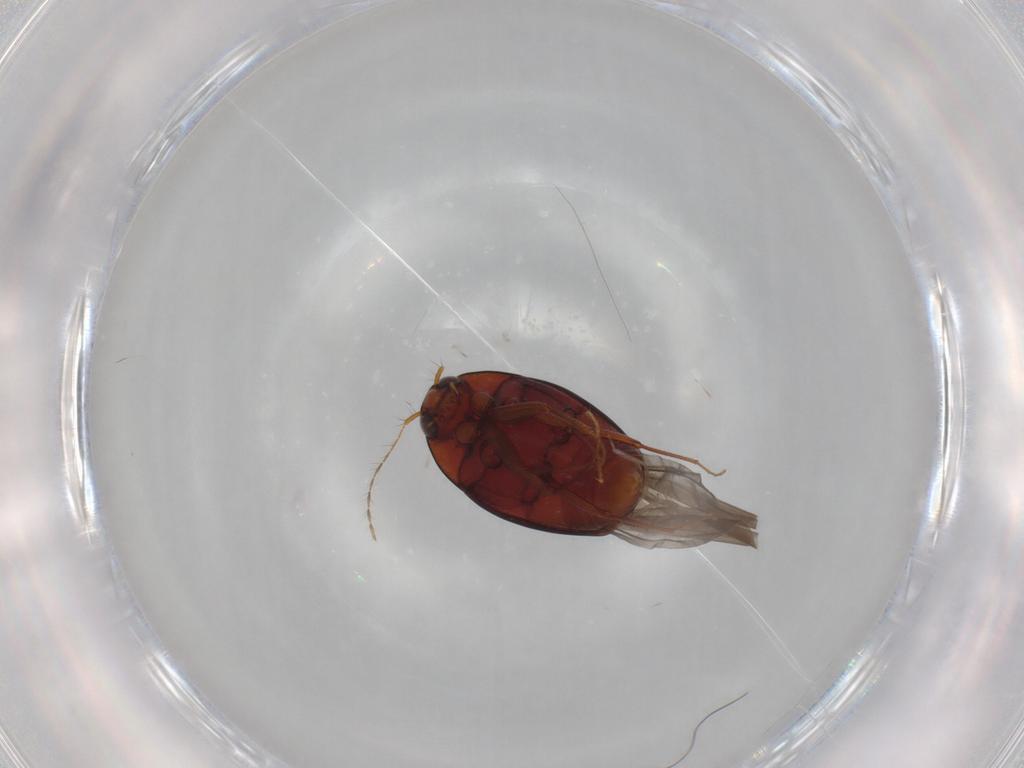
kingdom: Animalia
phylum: Arthropoda
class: Insecta
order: Coleoptera
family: Staphylinidae
